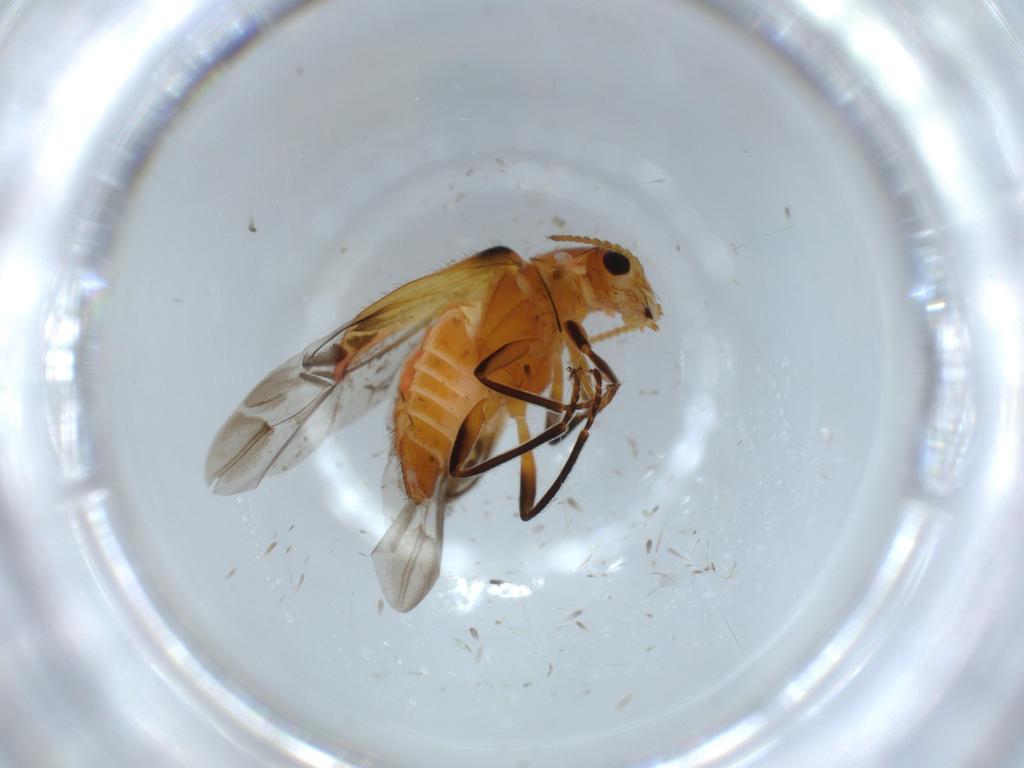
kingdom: Animalia
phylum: Arthropoda
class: Insecta
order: Coleoptera
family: Melyridae
